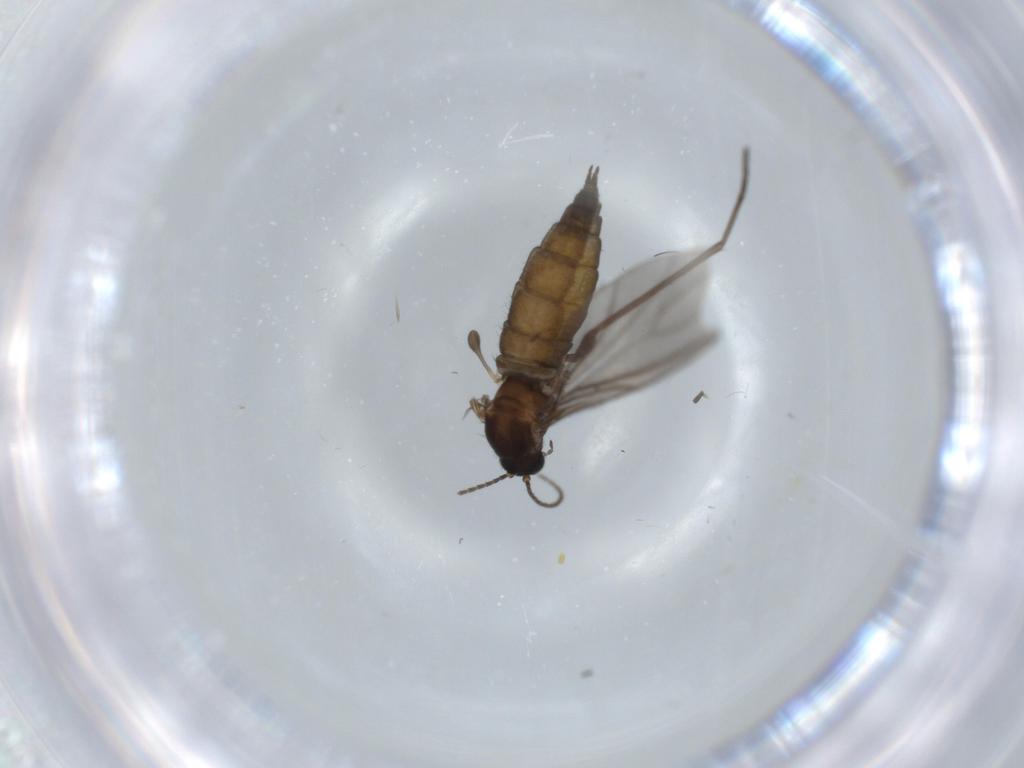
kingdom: Animalia
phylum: Arthropoda
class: Insecta
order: Diptera
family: Sciaridae
